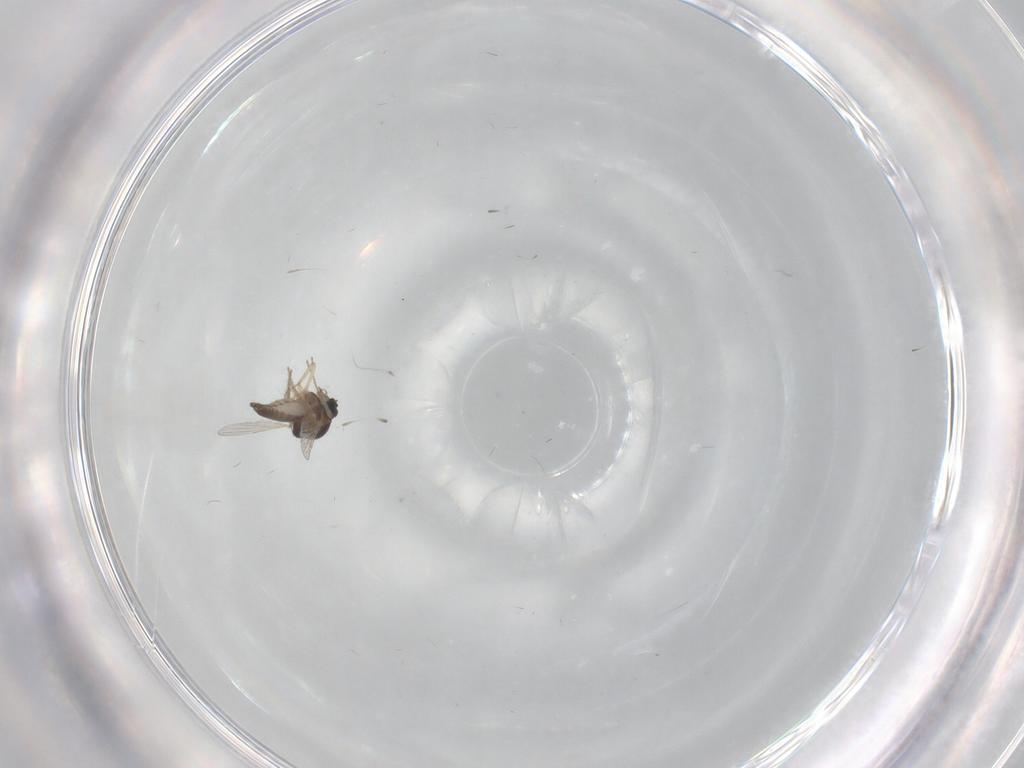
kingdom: Animalia
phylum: Arthropoda
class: Insecta
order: Diptera
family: Ceratopogonidae
